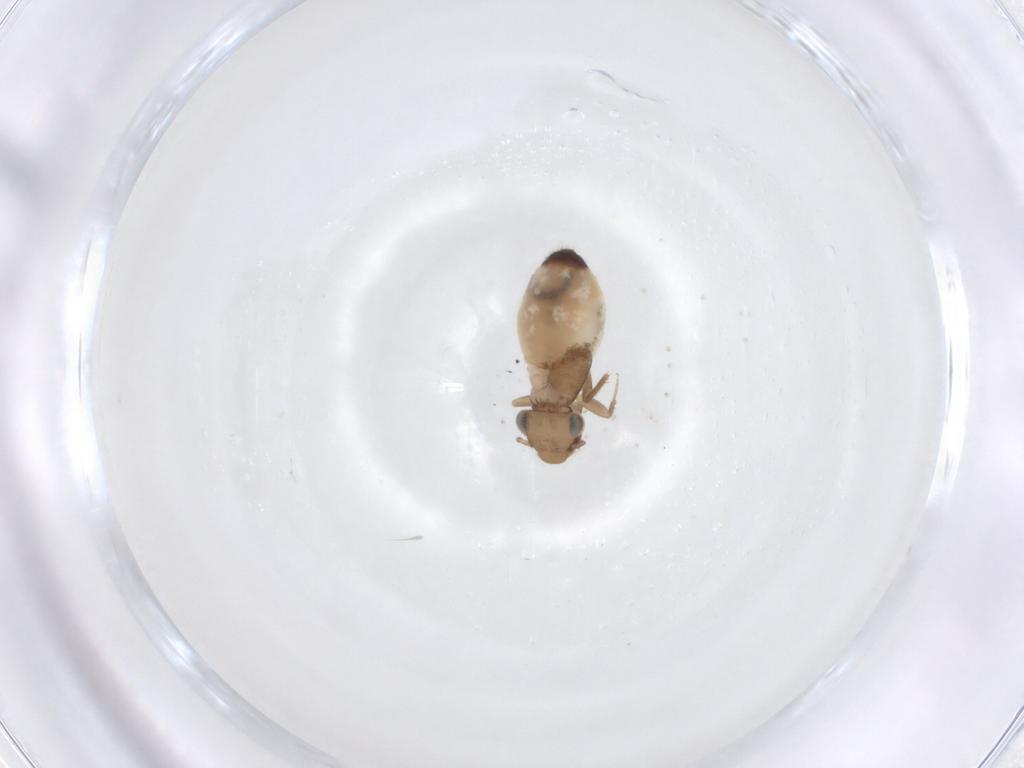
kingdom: Animalia
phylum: Arthropoda
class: Insecta
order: Psocodea
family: Lepidopsocidae
